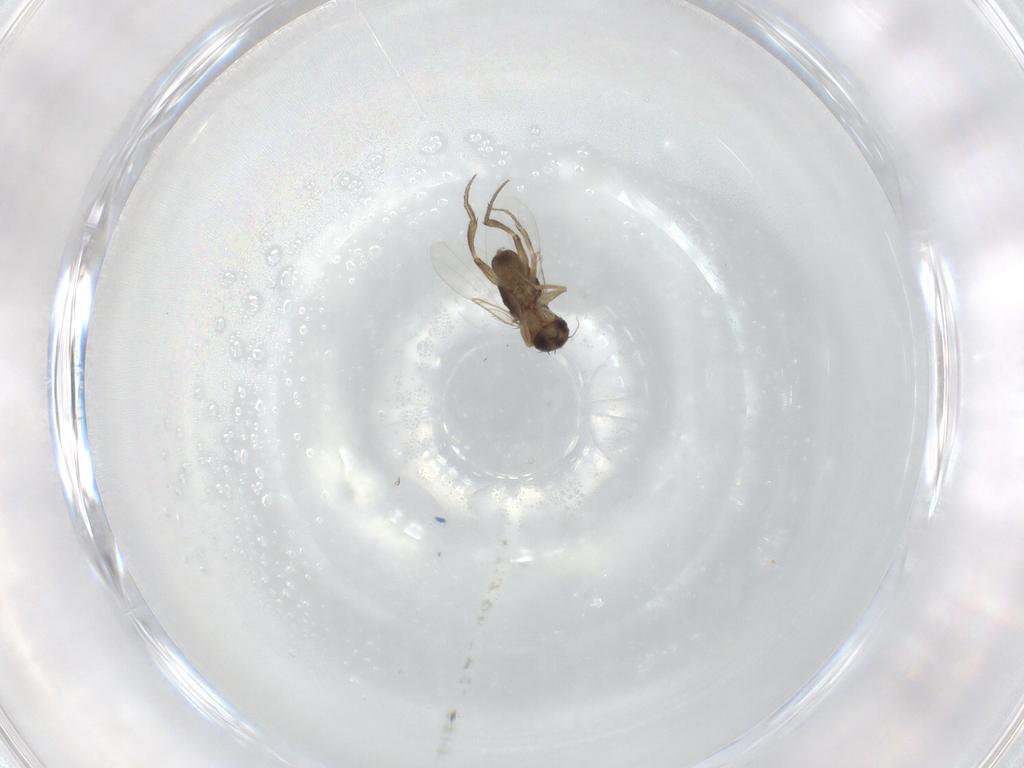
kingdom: Animalia
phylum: Arthropoda
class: Insecta
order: Diptera
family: Phoridae
